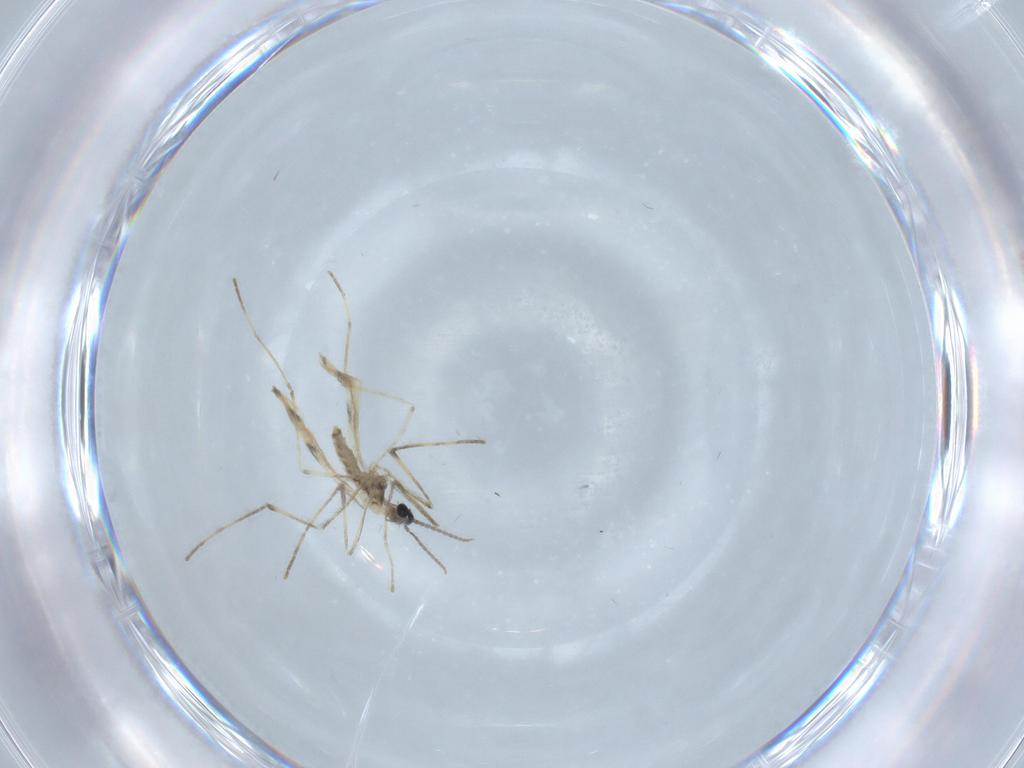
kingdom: Animalia
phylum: Arthropoda
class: Insecta
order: Diptera
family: Cecidomyiidae
